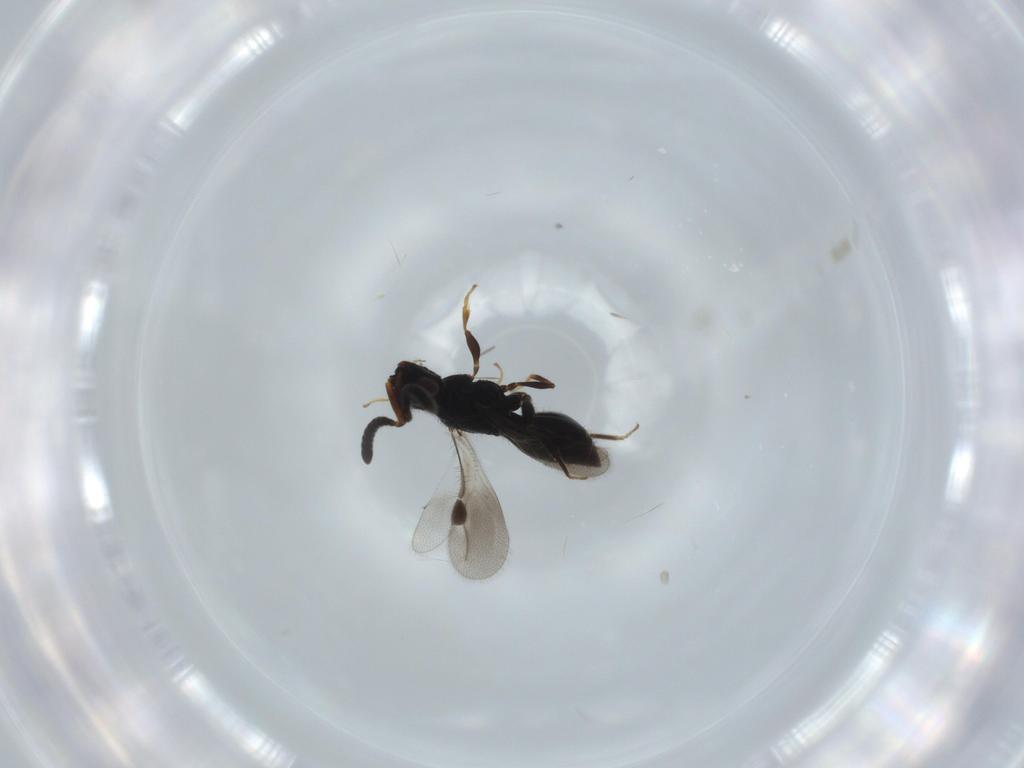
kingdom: Animalia
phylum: Arthropoda
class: Insecta
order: Hymenoptera
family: Megaspilidae
